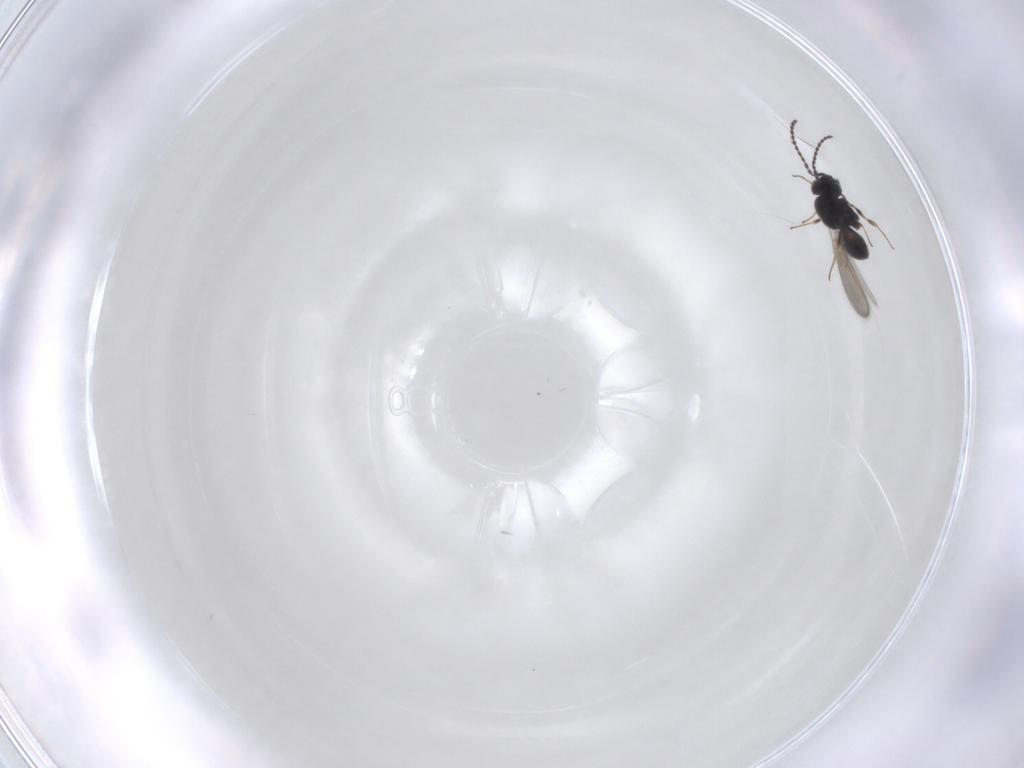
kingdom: Animalia
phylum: Arthropoda
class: Insecta
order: Hymenoptera
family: Scelionidae
